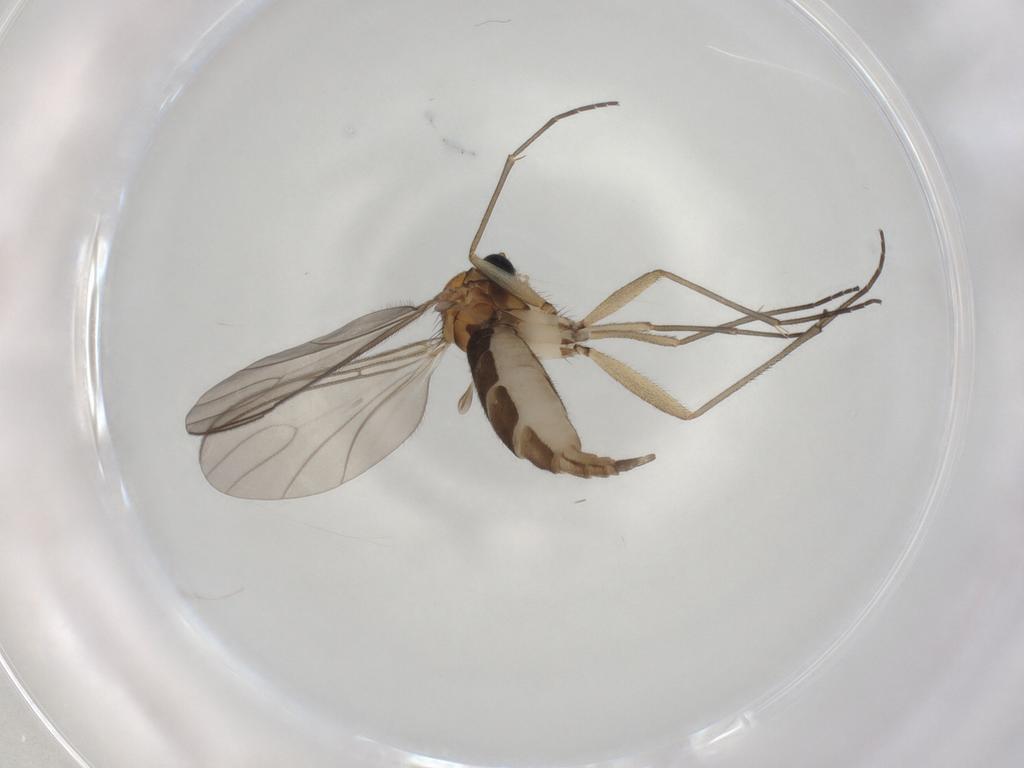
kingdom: Animalia
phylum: Arthropoda
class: Insecta
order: Diptera
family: Sciaridae
